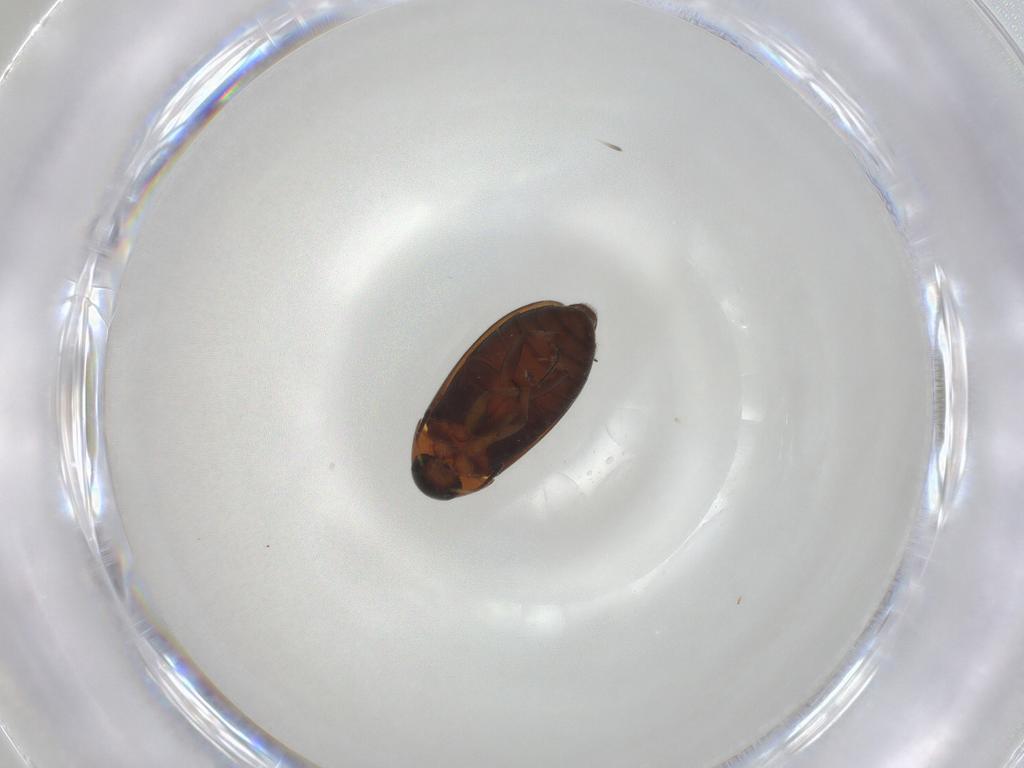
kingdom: Animalia
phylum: Arthropoda
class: Insecta
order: Coleoptera
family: Scraptiidae
